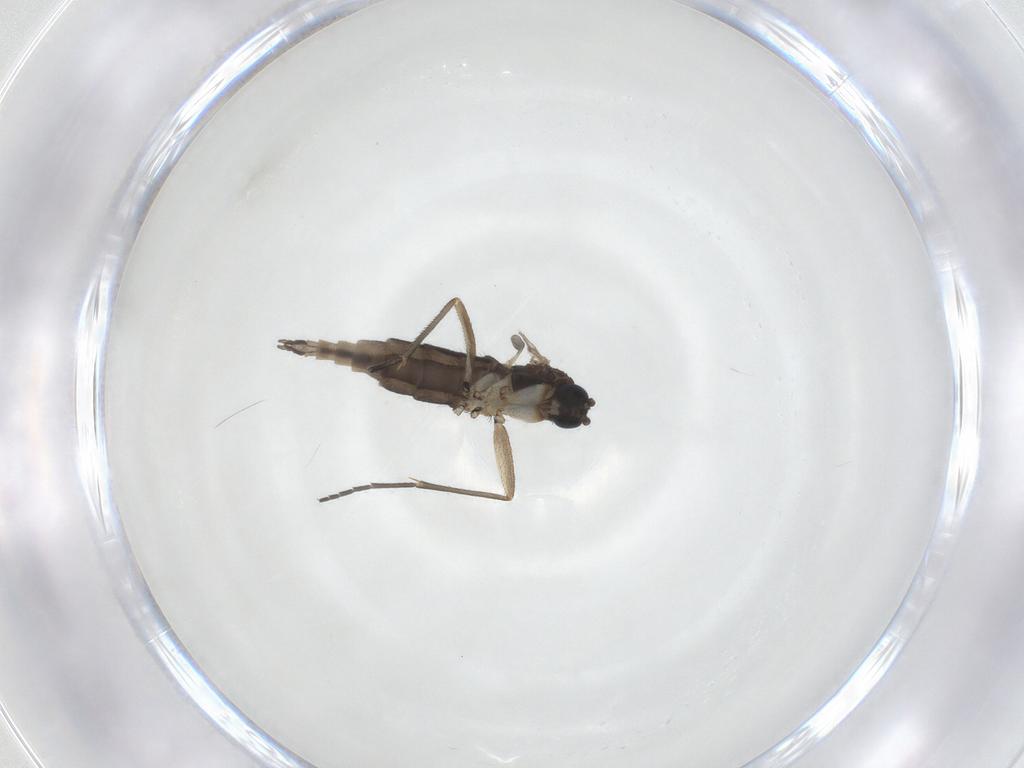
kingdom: Animalia
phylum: Arthropoda
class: Insecta
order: Diptera
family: Sciaridae
